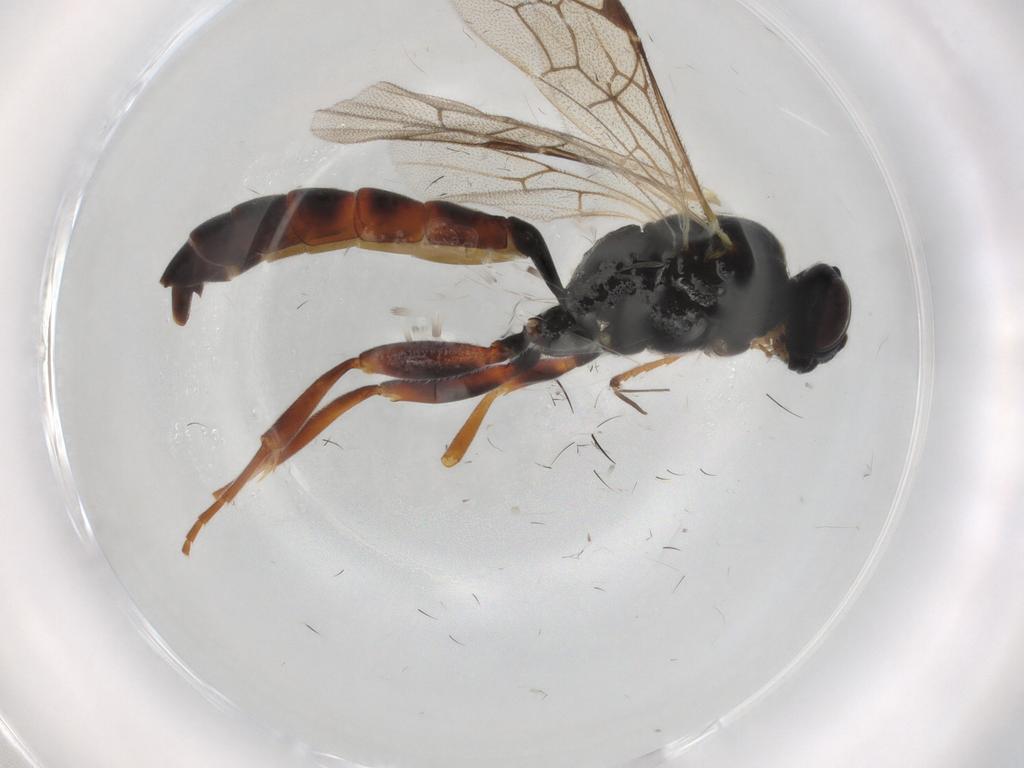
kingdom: Animalia
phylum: Arthropoda
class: Insecta
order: Hymenoptera
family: Ichneumonidae
